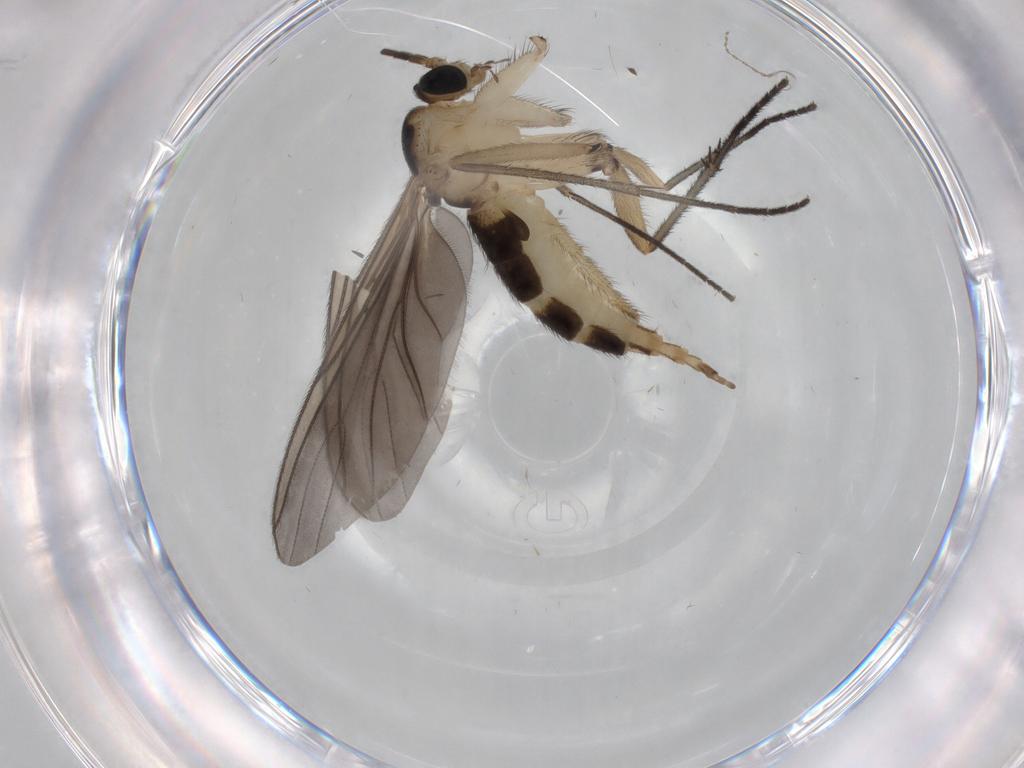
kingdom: Animalia
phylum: Arthropoda
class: Insecta
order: Diptera
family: Sciaridae
